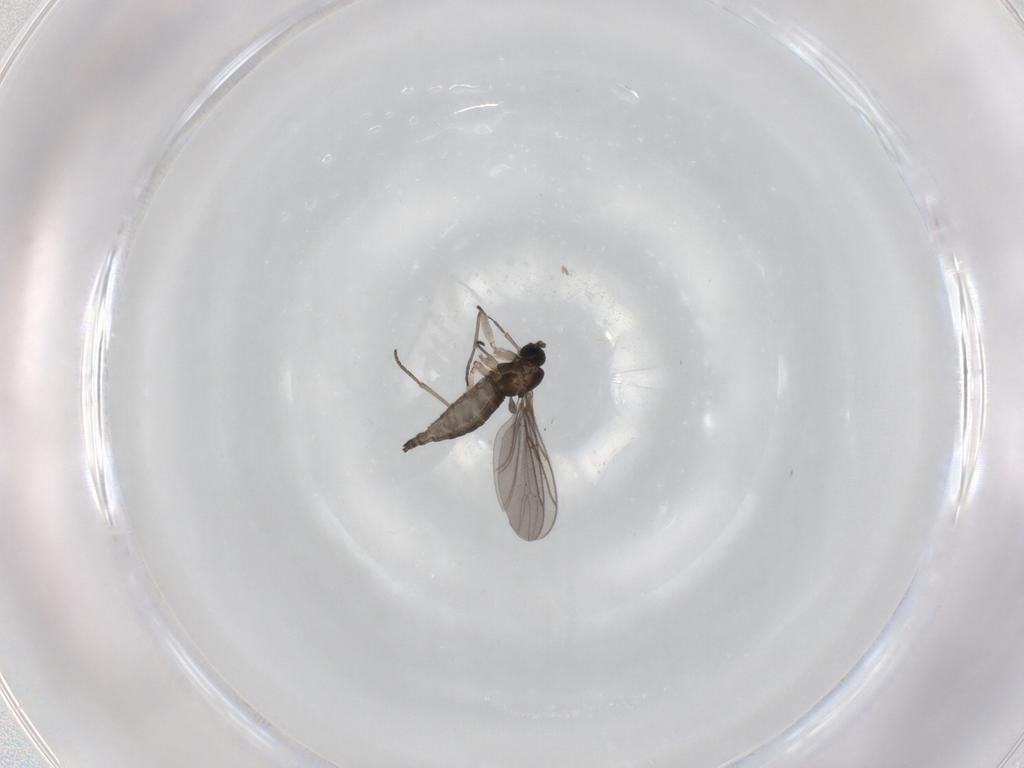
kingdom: Animalia
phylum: Arthropoda
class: Insecta
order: Diptera
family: Sciaridae
